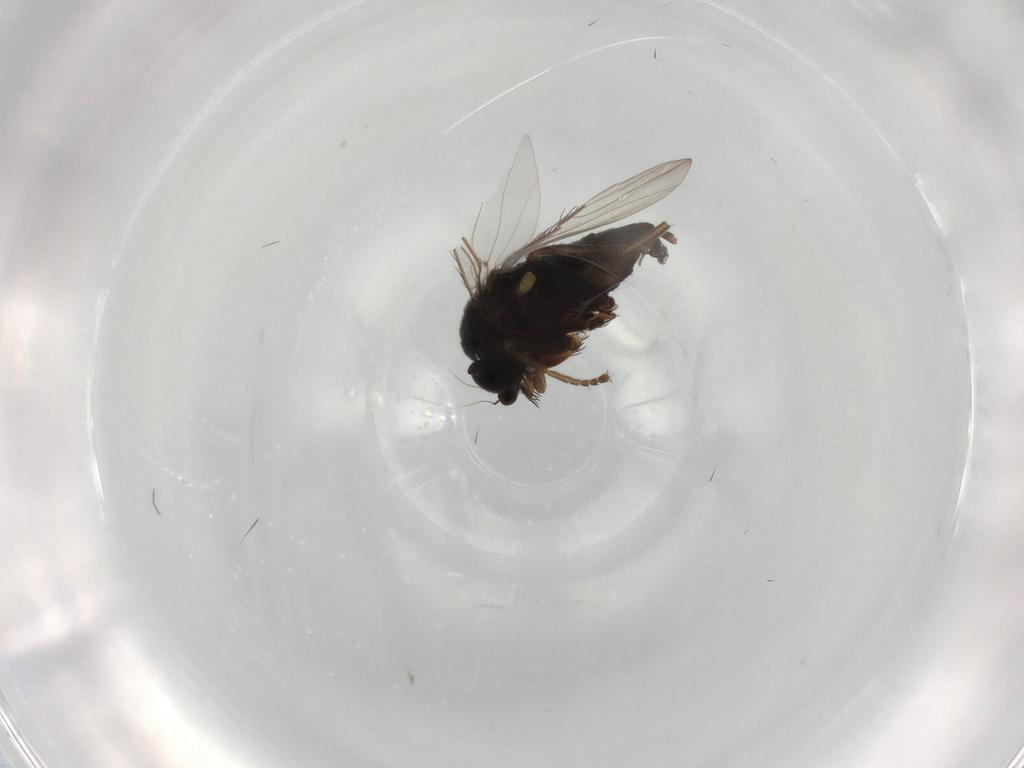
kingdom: Animalia
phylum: Arthropoda
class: Insecta
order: Diptera
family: Phoridae
